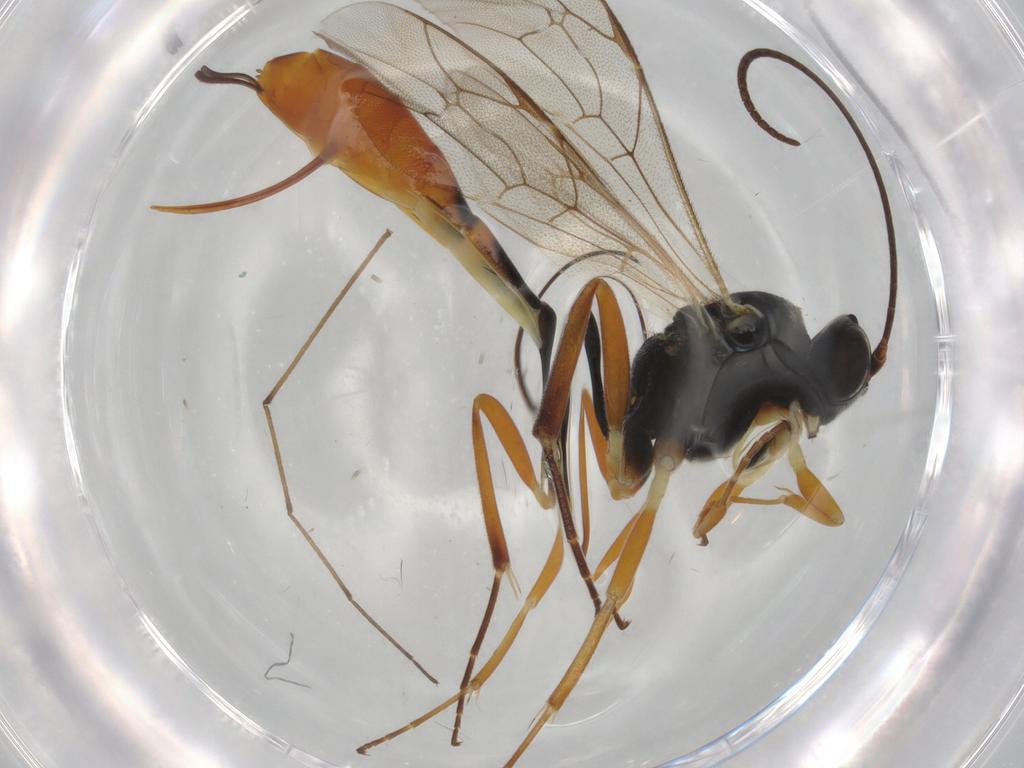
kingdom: Animalia
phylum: Arthropoda
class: Insecta
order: Hymenoptera
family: Ichneumonidae
